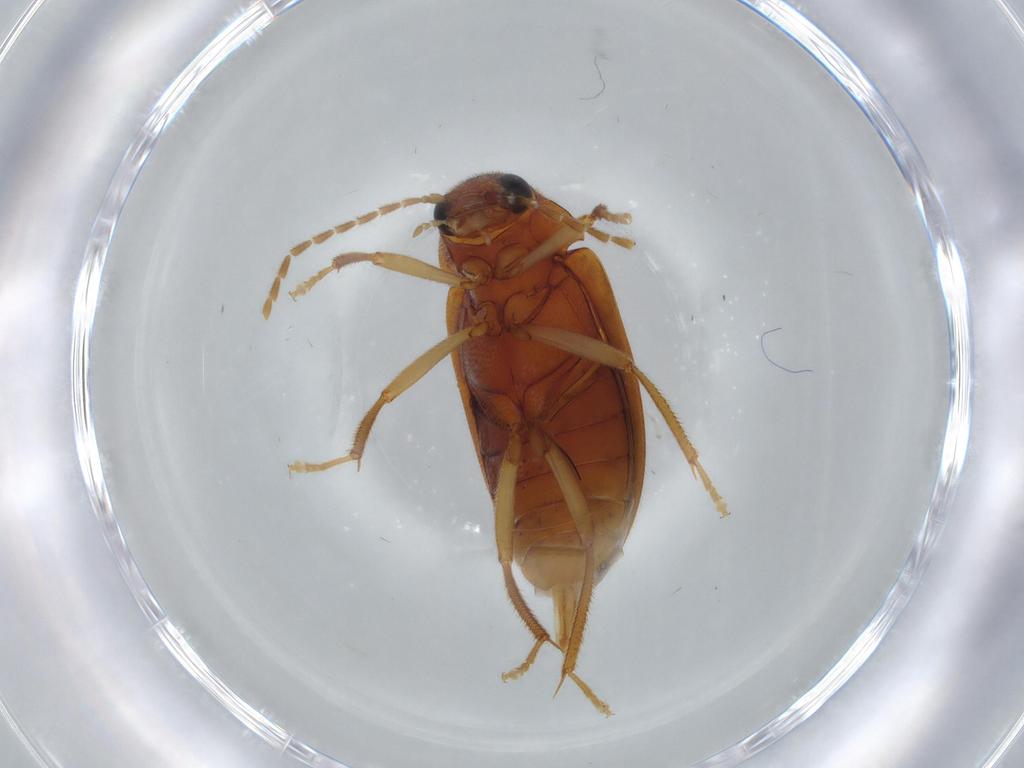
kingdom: Animalia
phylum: Arthropoda
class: Insecta
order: Coleoptera
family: Ptilodactylidae
